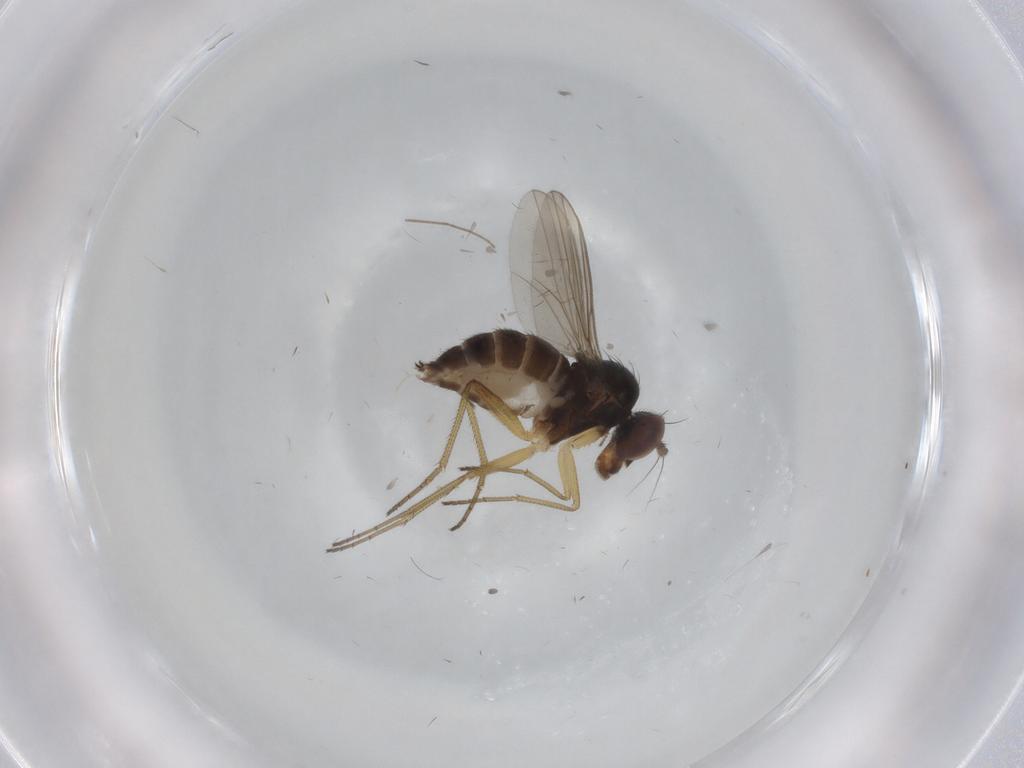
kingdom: Animalia
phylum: Arthropoda
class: Insecta
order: Diptera
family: Dolichopodidae
